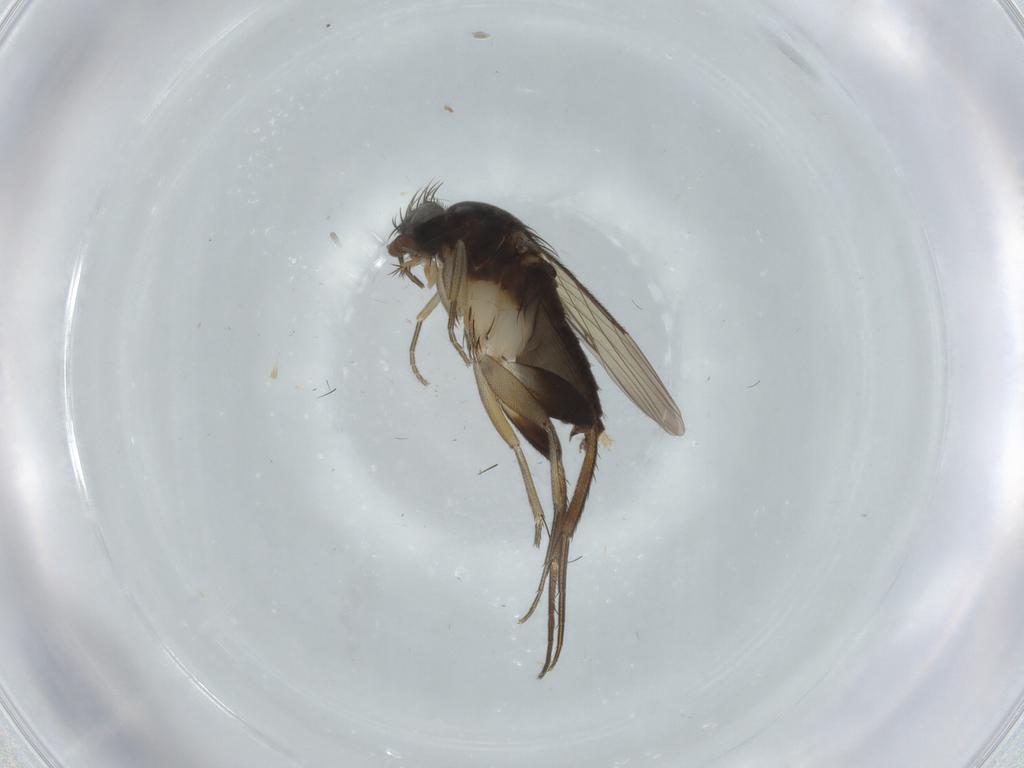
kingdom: Animalia
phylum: Arthropoda
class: Insecta
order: Diptera
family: Phoridae
